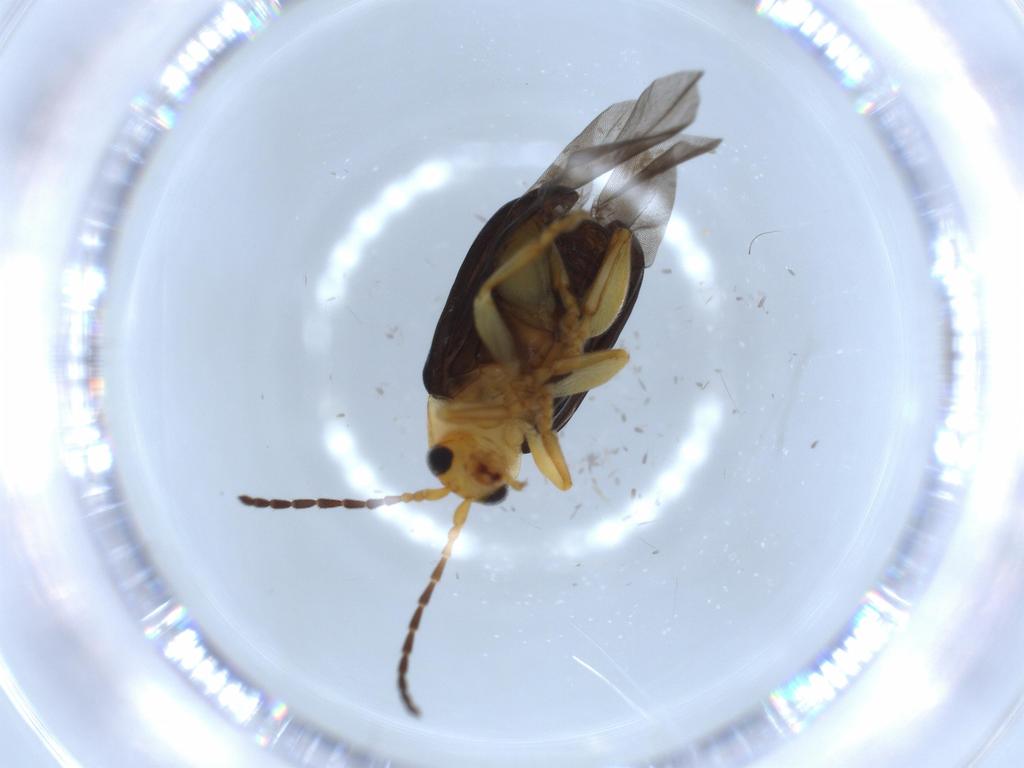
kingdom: Animalia
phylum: Arthropoda
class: Insecta
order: Coleoptera
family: Chrysomelidae
